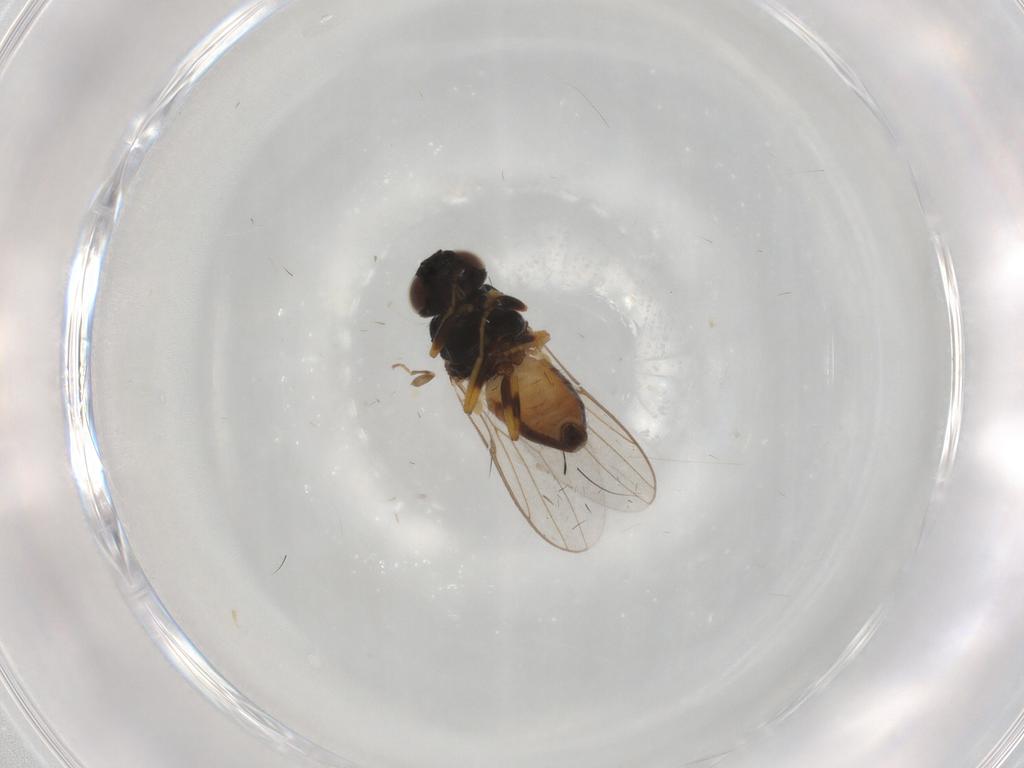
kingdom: Animalia
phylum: Arthropoda
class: Insecta
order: Diptera
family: Chloropidae
